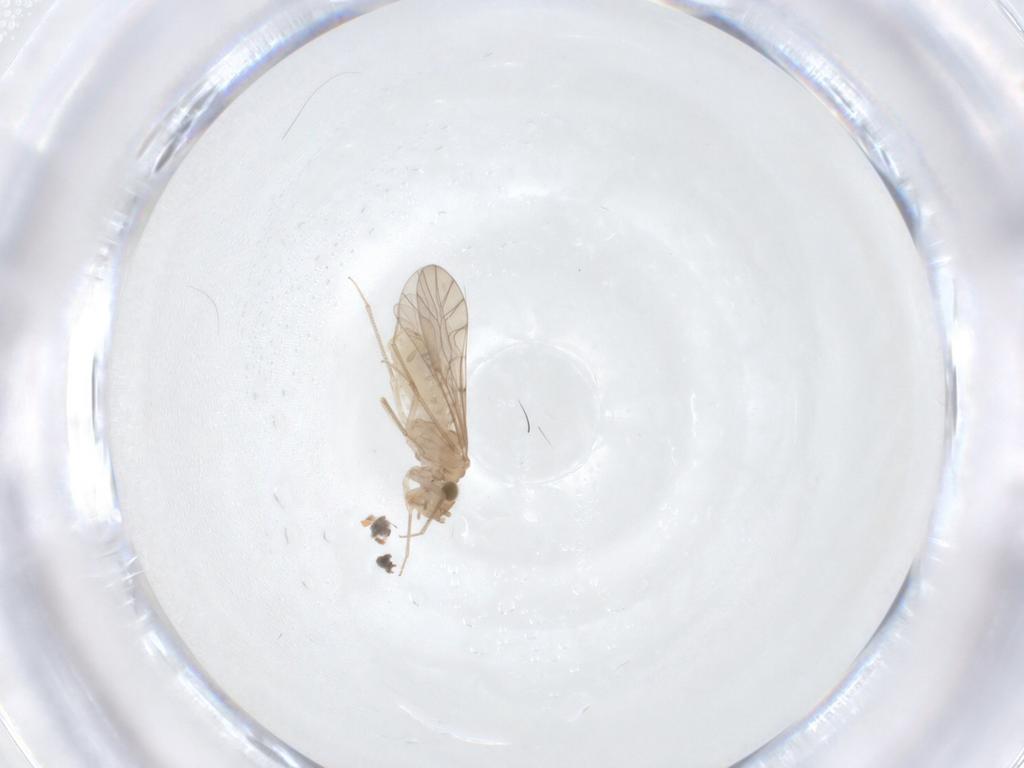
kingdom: Animalia
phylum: Arthropoda
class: Insecta
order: Psocodea
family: Lachesillidae
